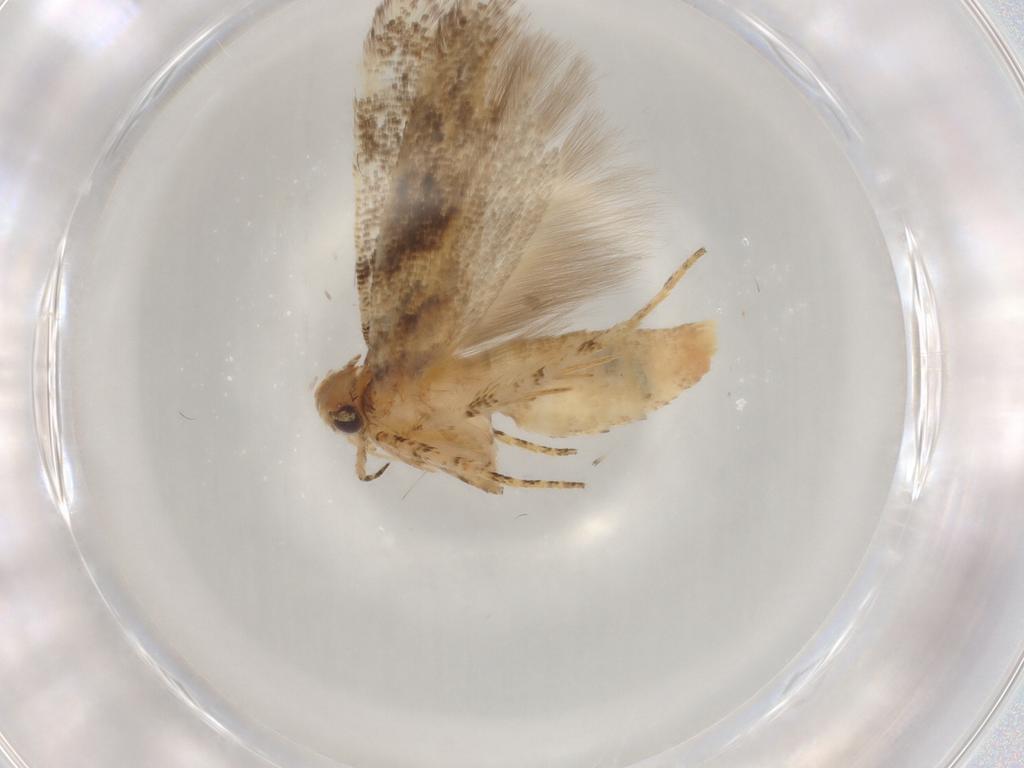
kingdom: Animalia
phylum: Arthropoda
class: Insecta
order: Lepidoptera
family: Gelechiidae
